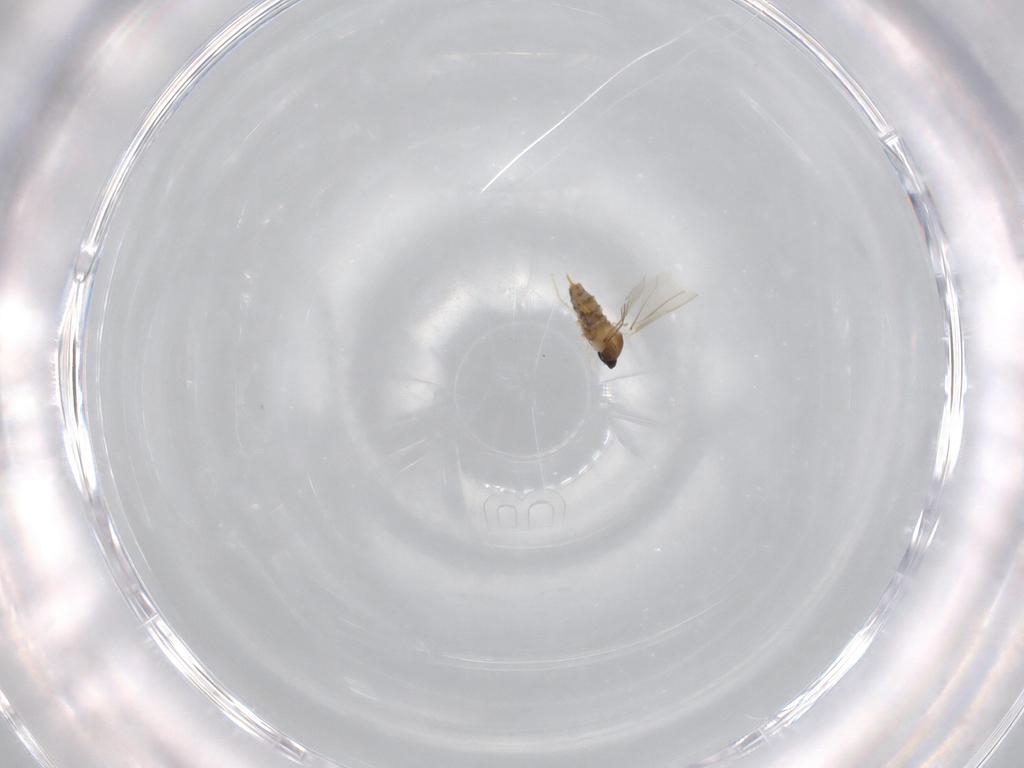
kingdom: Animalia
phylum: Arthropoda
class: Insecta
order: Diptera
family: Cecidomyiidae
